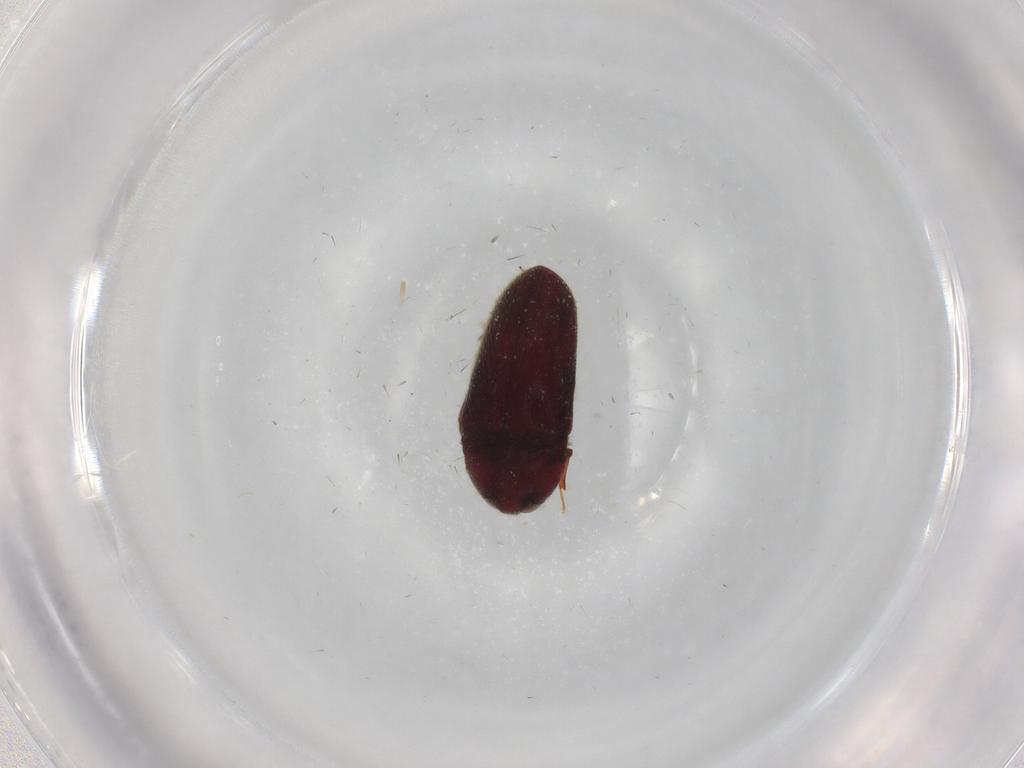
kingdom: Animalia
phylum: Arthropoda
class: Insecta
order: Coleoptera
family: Throscidae
